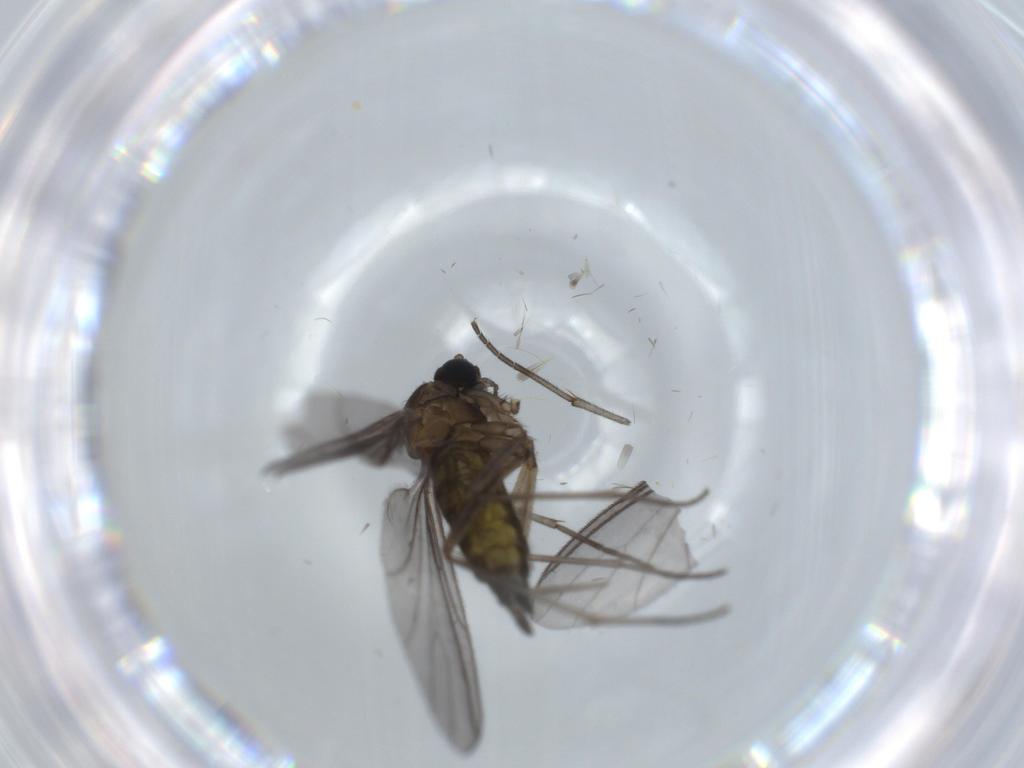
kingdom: Animalia
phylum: Arthropoda
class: Insecta
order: Diptera
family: Sciaridae
